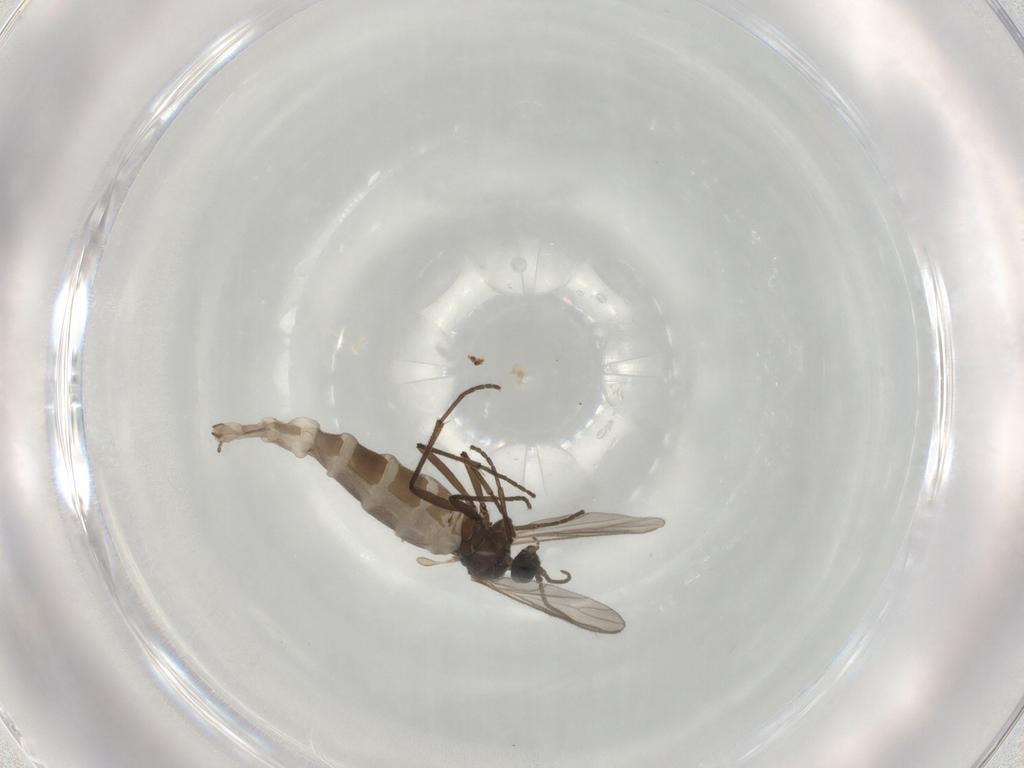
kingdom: Animalia
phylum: Arthropoda
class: Insecta
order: Diptera
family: Sciaridae
